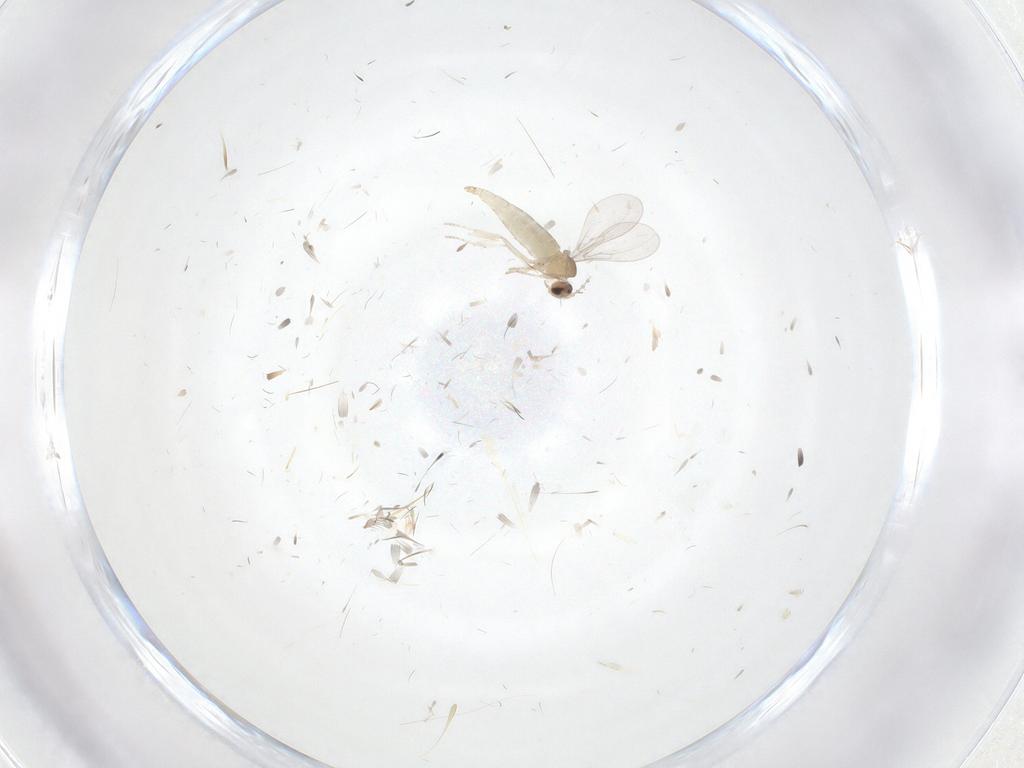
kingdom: Animalia
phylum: Arthropoda
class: Insecta
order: Diptera
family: Cecidomyiidae
